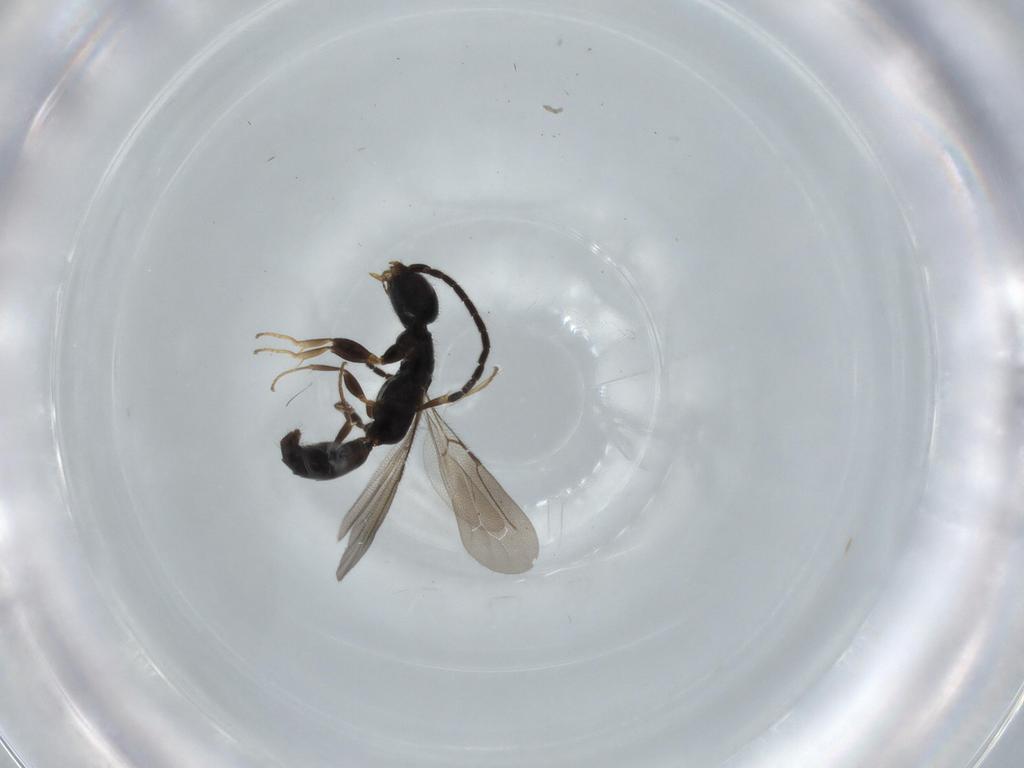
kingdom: Animalia
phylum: Arthropoda
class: Insecta
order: Hymenoptera
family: Bethylidae
